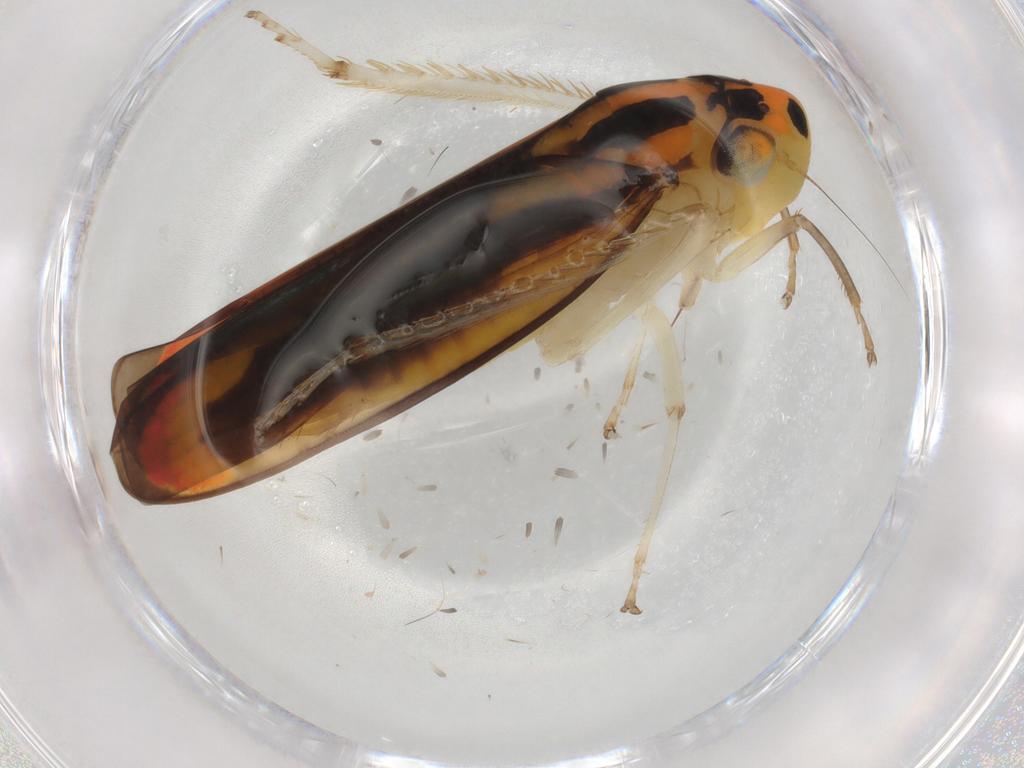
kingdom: Animalia
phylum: Arthropoda
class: Insecta
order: Hemiptera
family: Cicadellidae
